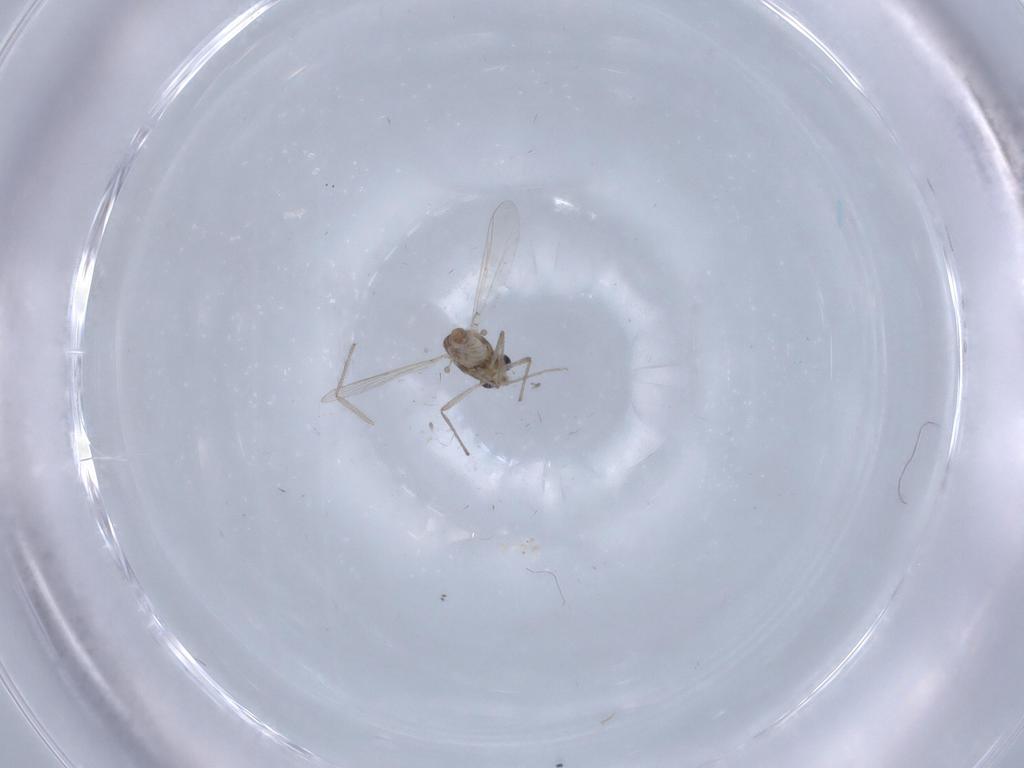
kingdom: Animalia
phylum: Arthropoda
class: Insecta
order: Diptera
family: Chironomidae
